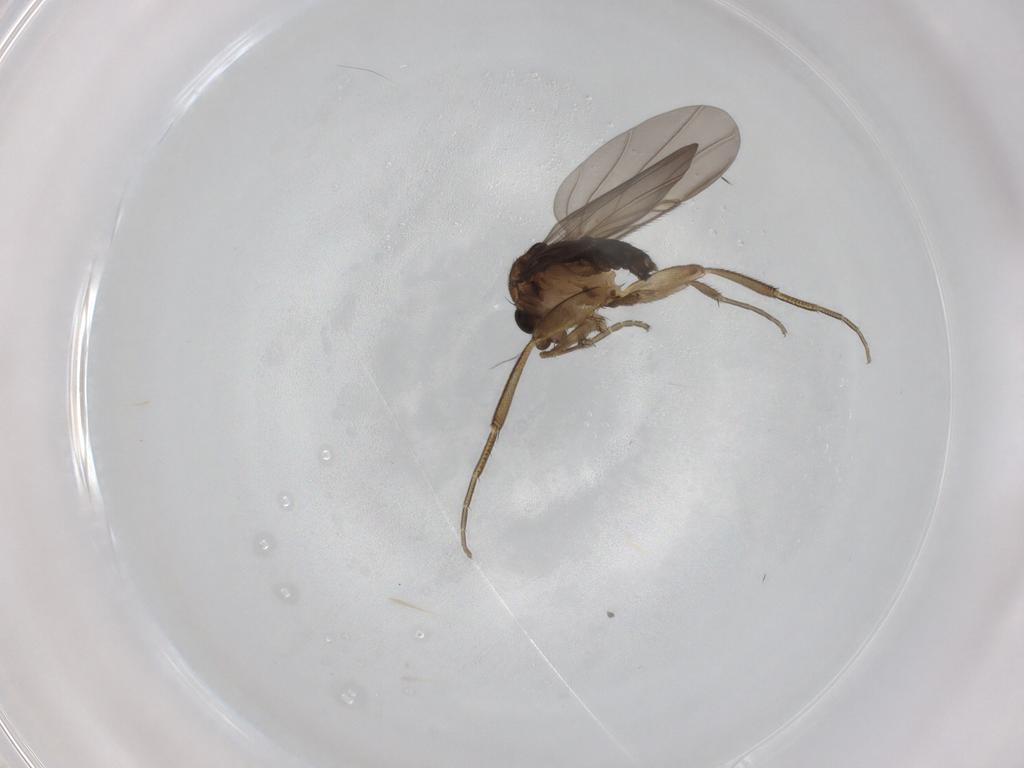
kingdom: Animalia
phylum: Arthropoda
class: Insecta
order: Diptera
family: Phoridae
